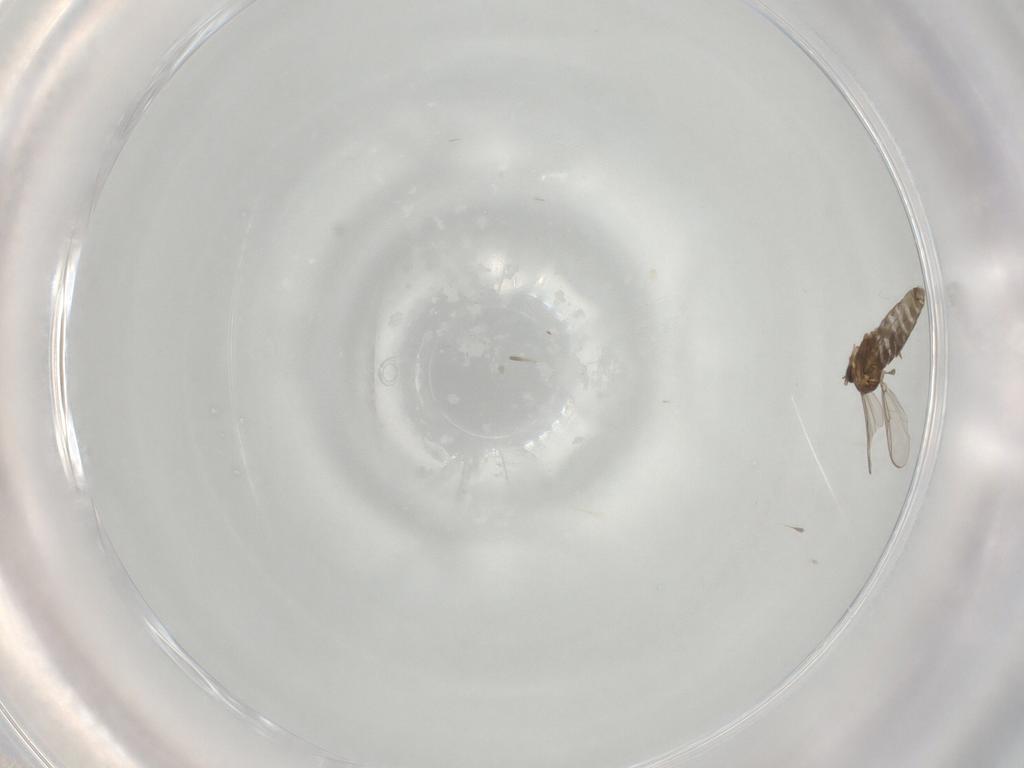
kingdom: Animalia
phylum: Arthropoda
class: Insecta
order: Diptera
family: Chironomidae
